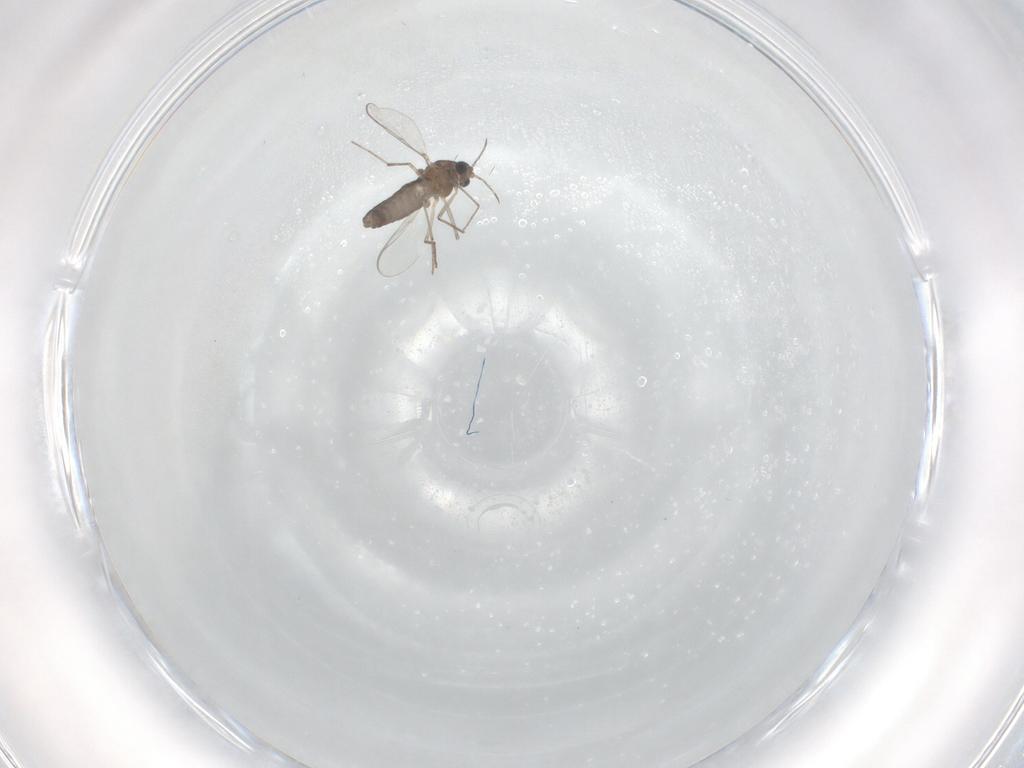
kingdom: Animalia
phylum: Arthropoda
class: Insecta
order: Diptera
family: Chironomidae
